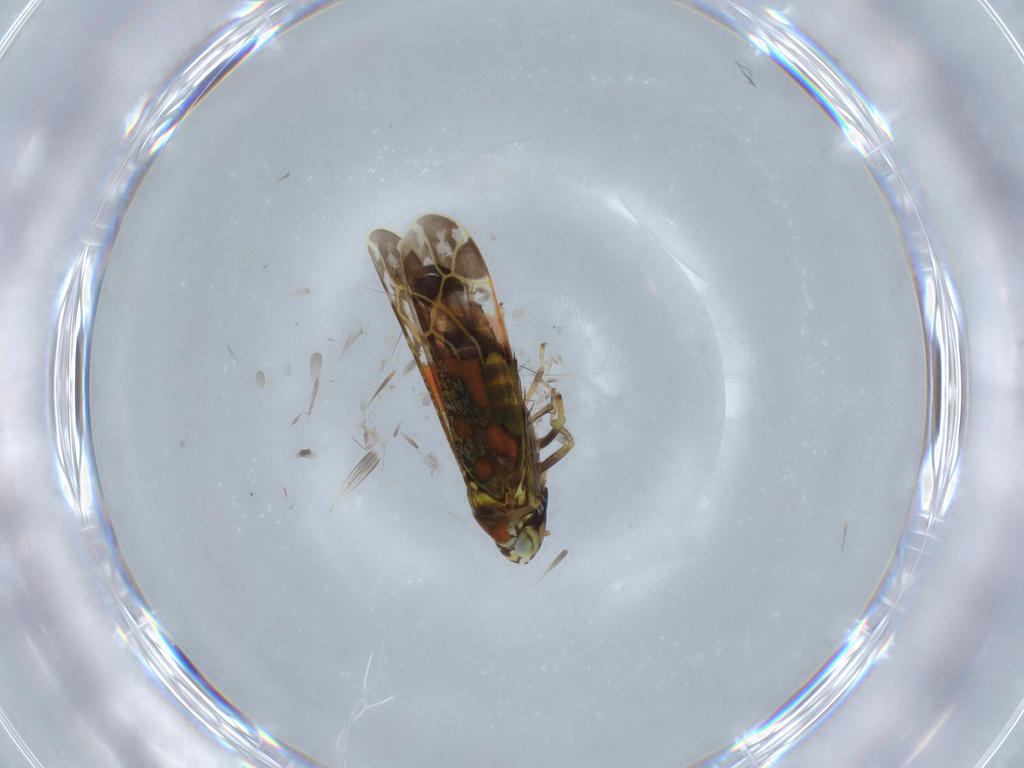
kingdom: Animalia
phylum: Arthropoda
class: Insecta
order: Hemiptera
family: Cicadellidae
